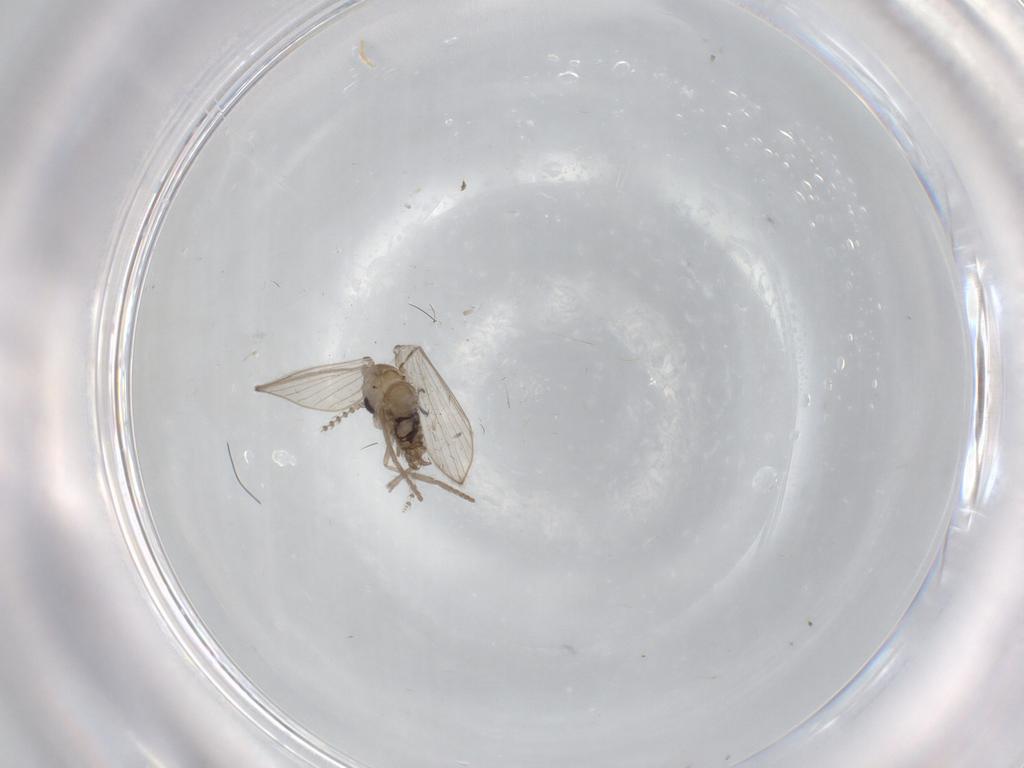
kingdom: Animalia
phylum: Arthropoda
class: Insecta
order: Diptera
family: Psychodidae
